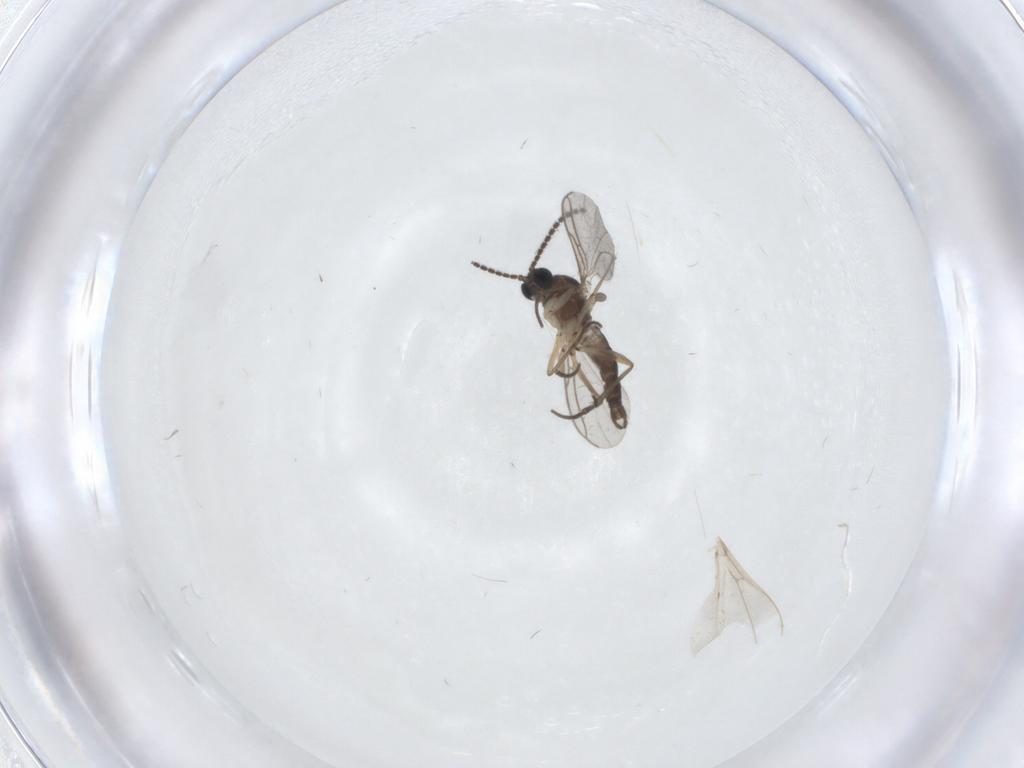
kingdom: Animalia
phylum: Arthropoda
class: Insecta
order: Diptera
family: Sciaridae
